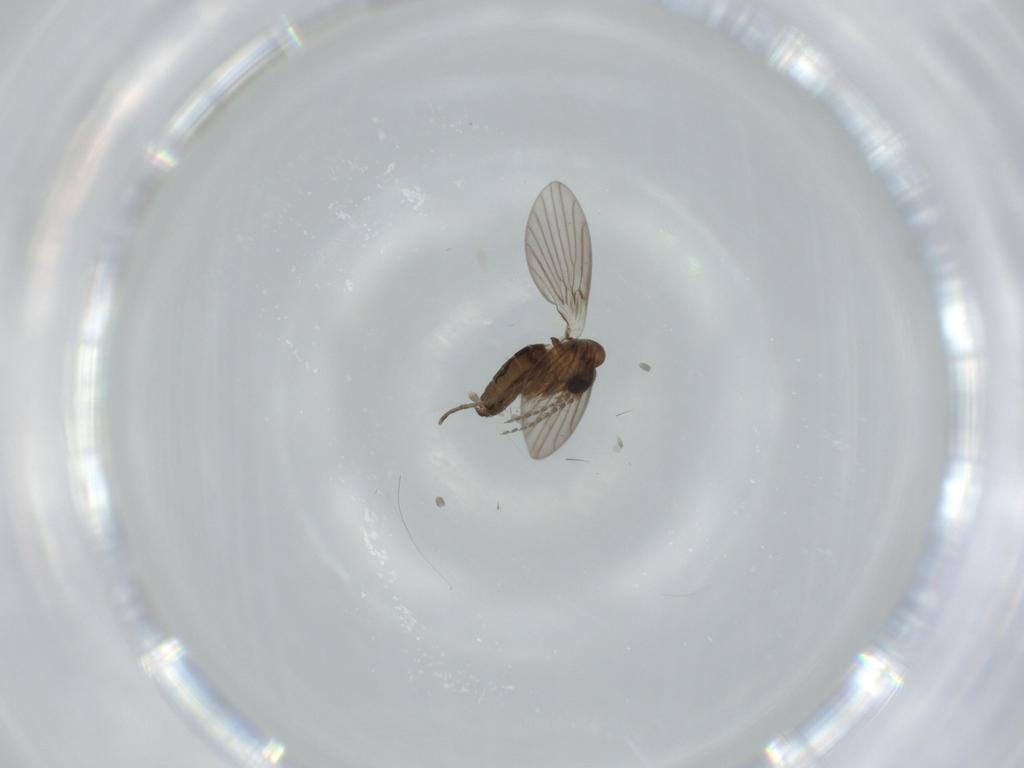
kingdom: Animalia
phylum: Arthropoda
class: Insecta
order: Diptera
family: Psychodidae
